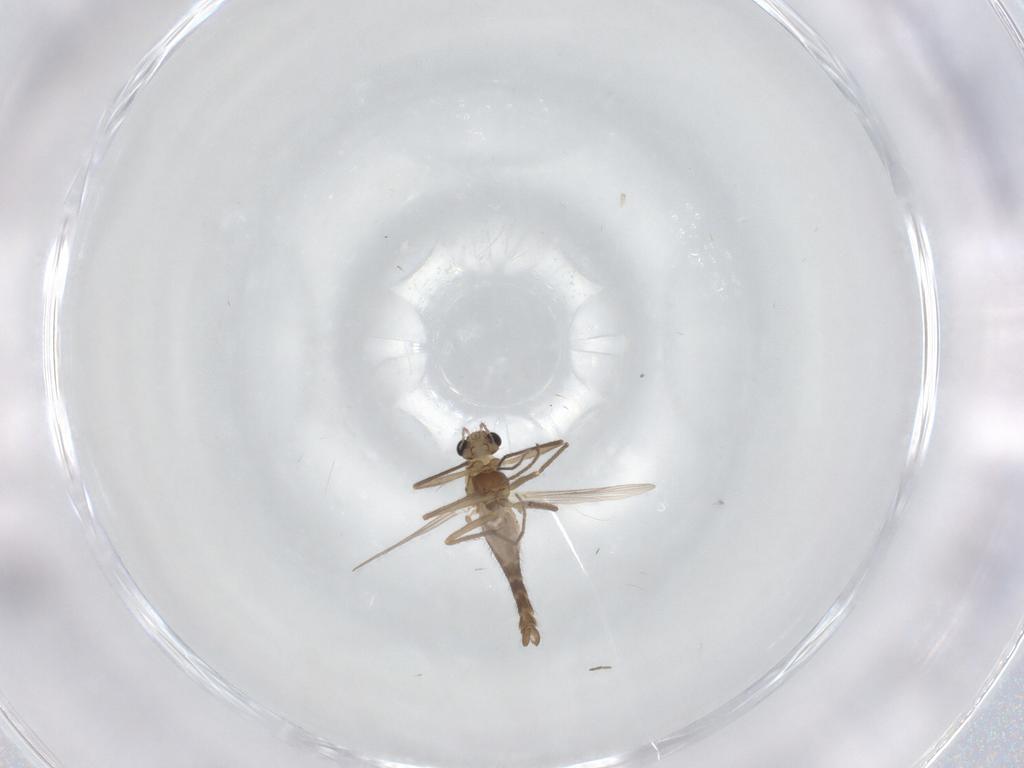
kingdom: Animalia
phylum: Arthropoda
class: Insecta
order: Diptera
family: Chironomidae
